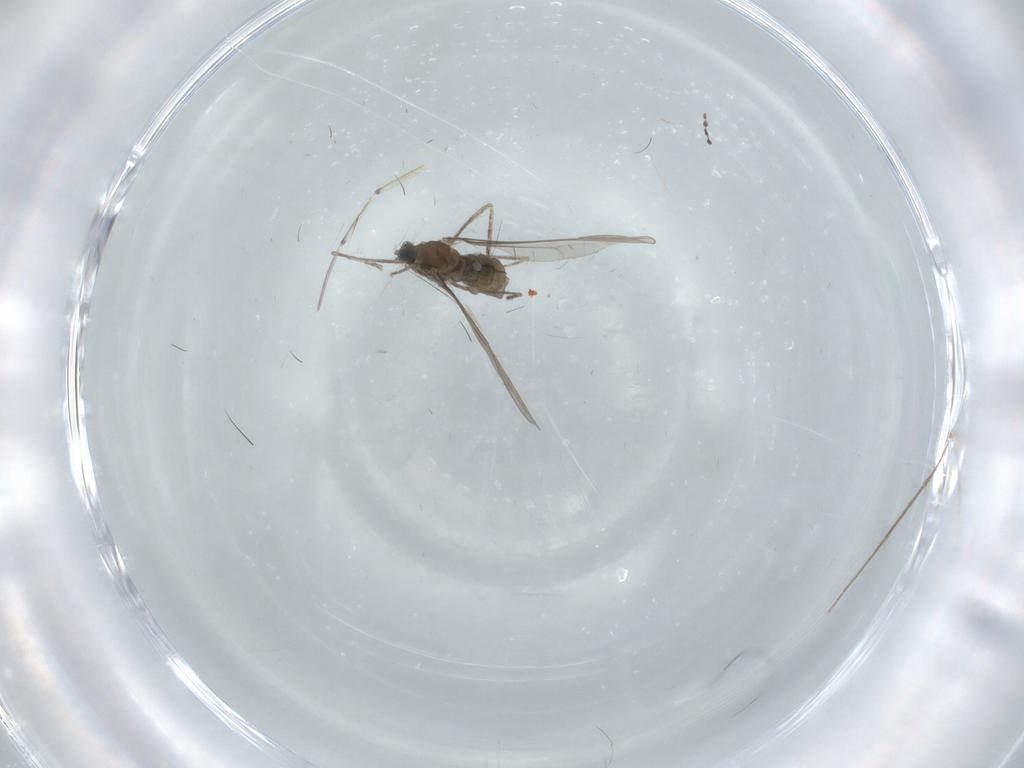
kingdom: Animalia
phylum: Arthropoda
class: Insecta
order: Diptera
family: Cecidomyiidae
